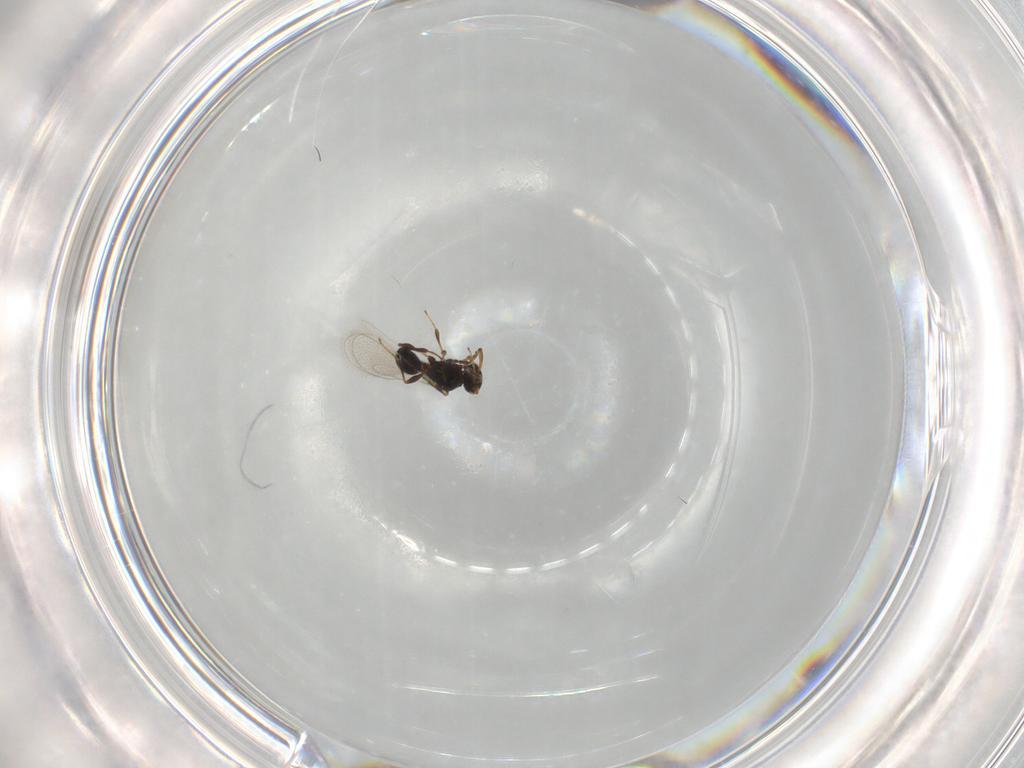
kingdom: Animalia
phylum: Arthropoda
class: Insecta
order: Hymenoptera
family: Platygastridae
